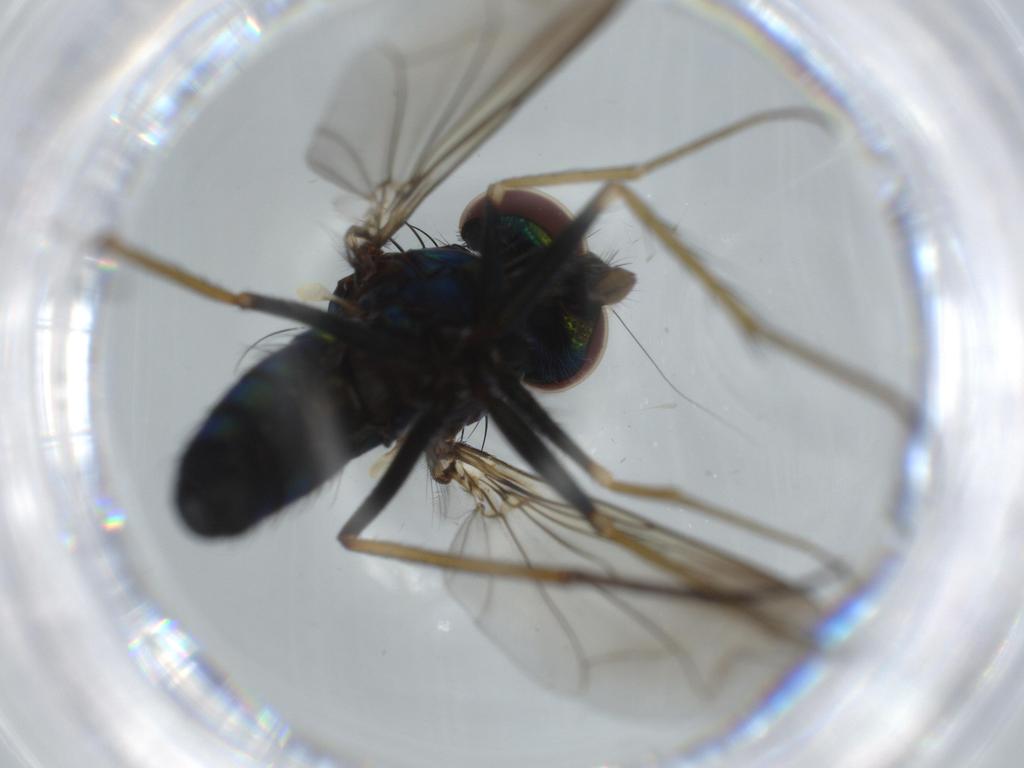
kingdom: Animalia
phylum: Arthropoda
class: Insecta
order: Diptera
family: Dolichopodidae
